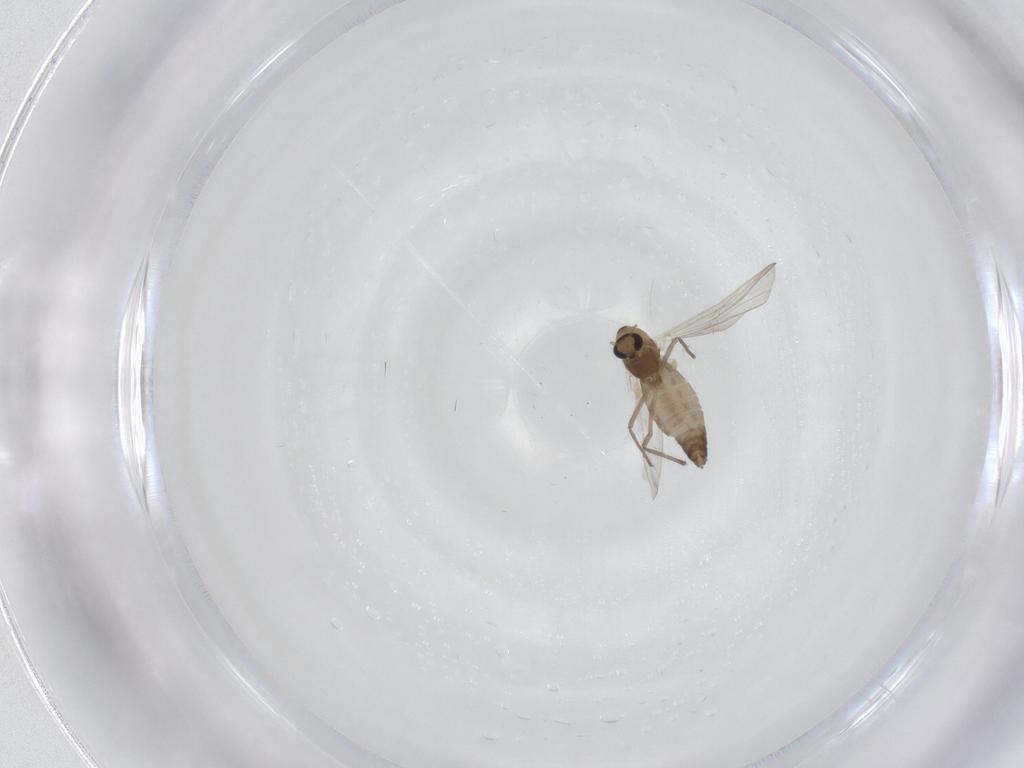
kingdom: Animalia
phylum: Arthropoda
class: Insecta
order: Diptera
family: Chironomidae
